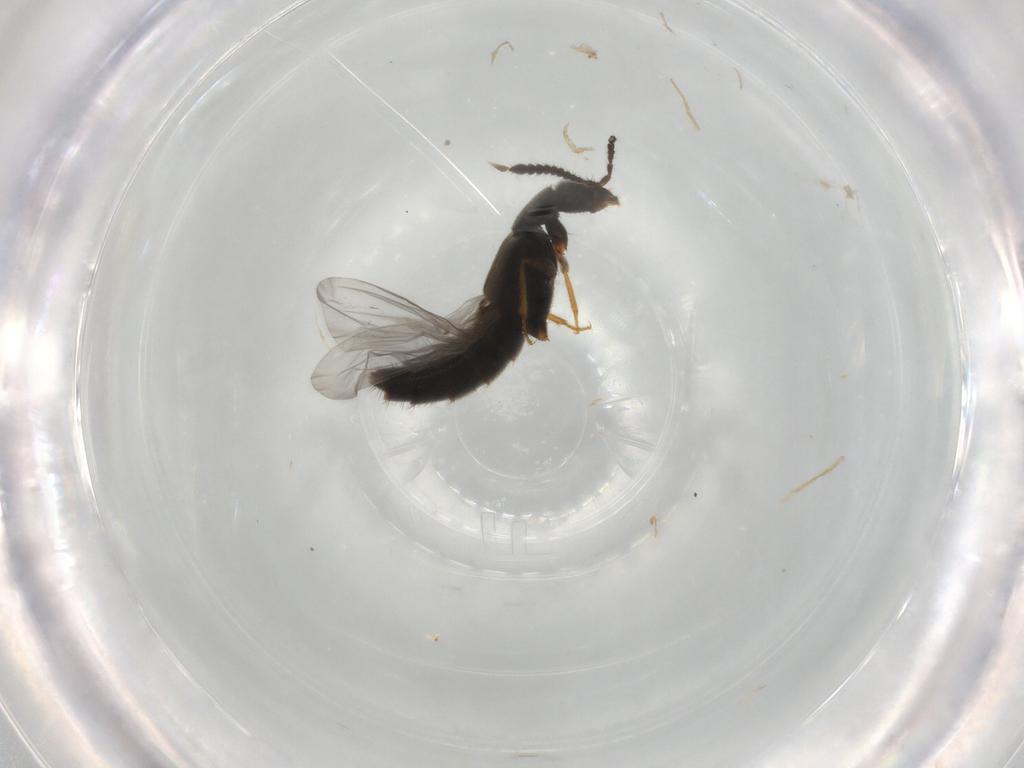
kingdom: Animalia
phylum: Arthropoda
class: Insecta
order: Coleoptera
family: Staphylinidae
